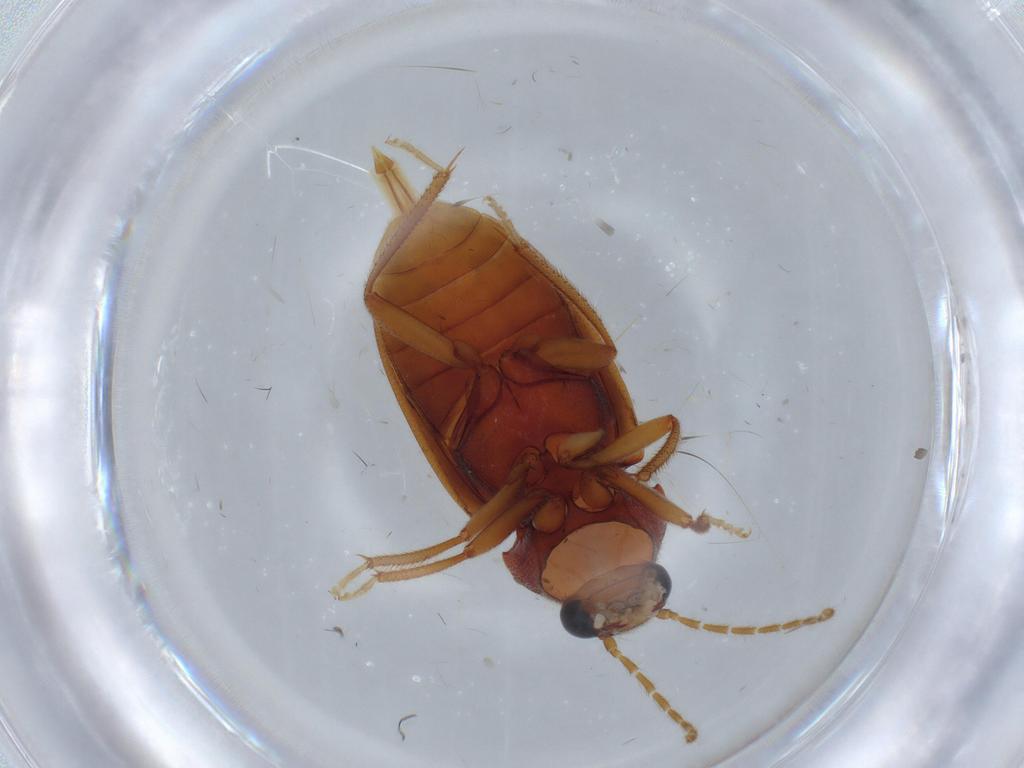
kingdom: Animalia
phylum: Arthropoda
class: Insecta
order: Coleoptera
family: Ptilodactylidae
